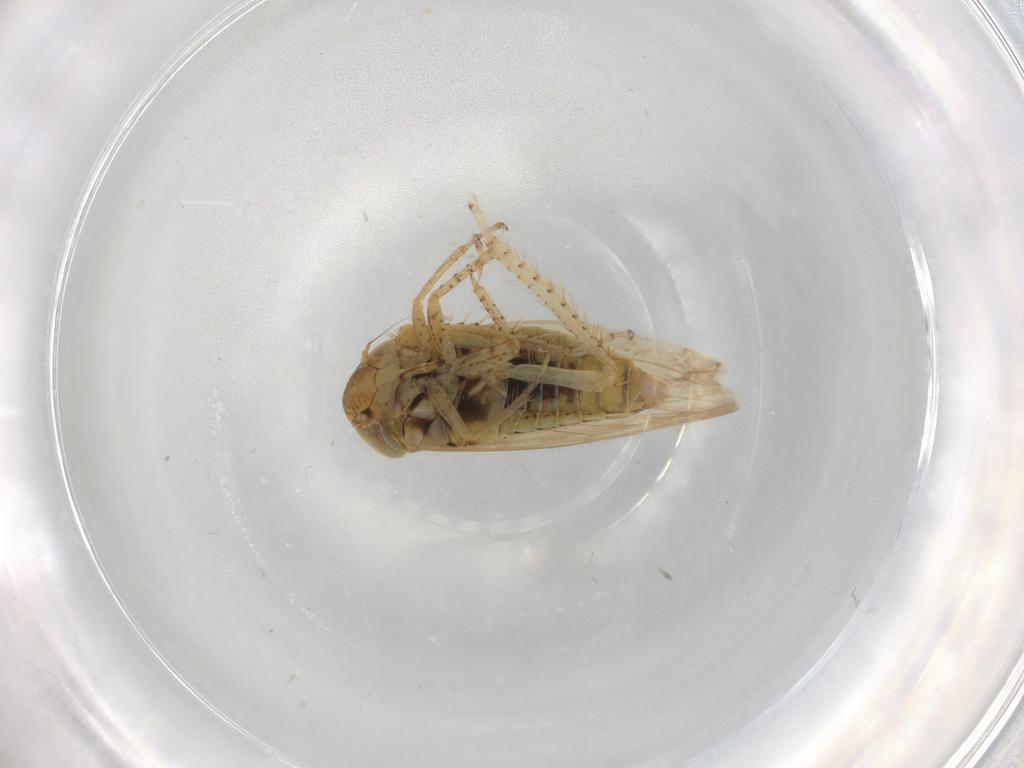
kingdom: Animalia
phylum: Arthropoda
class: Insecta
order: Hemiptera
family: Cicadellidae
